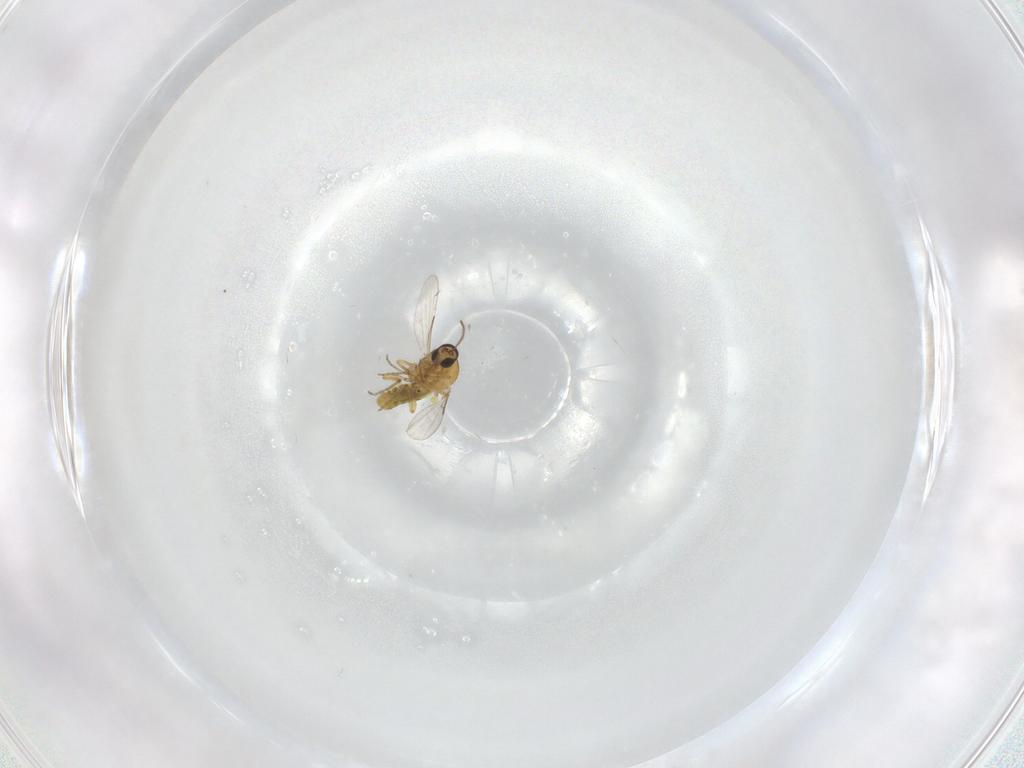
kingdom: Animalia
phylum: Arthropoda
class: Insecta
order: Diptera
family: Ceratopogonidae
